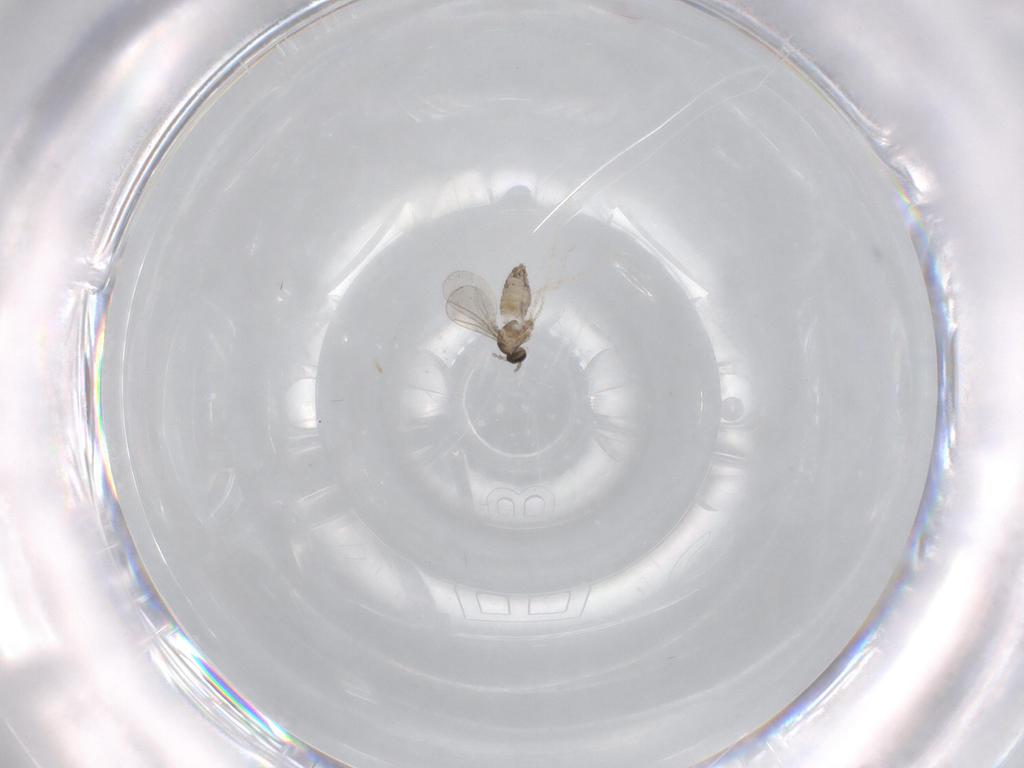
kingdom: Animalia
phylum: Arthropoda
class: Insecta
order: Diptera
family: Cecidomyiidae
